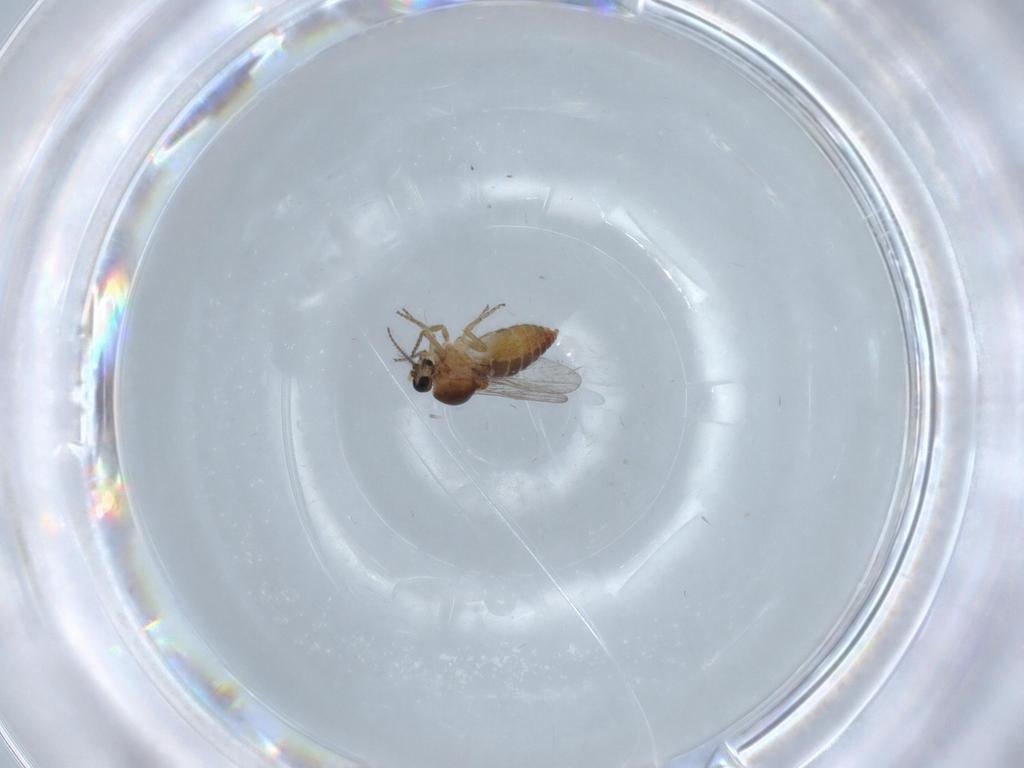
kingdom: Animalia
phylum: Arthropoda
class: Insecta
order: Diptera
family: Ceratopogonidae
